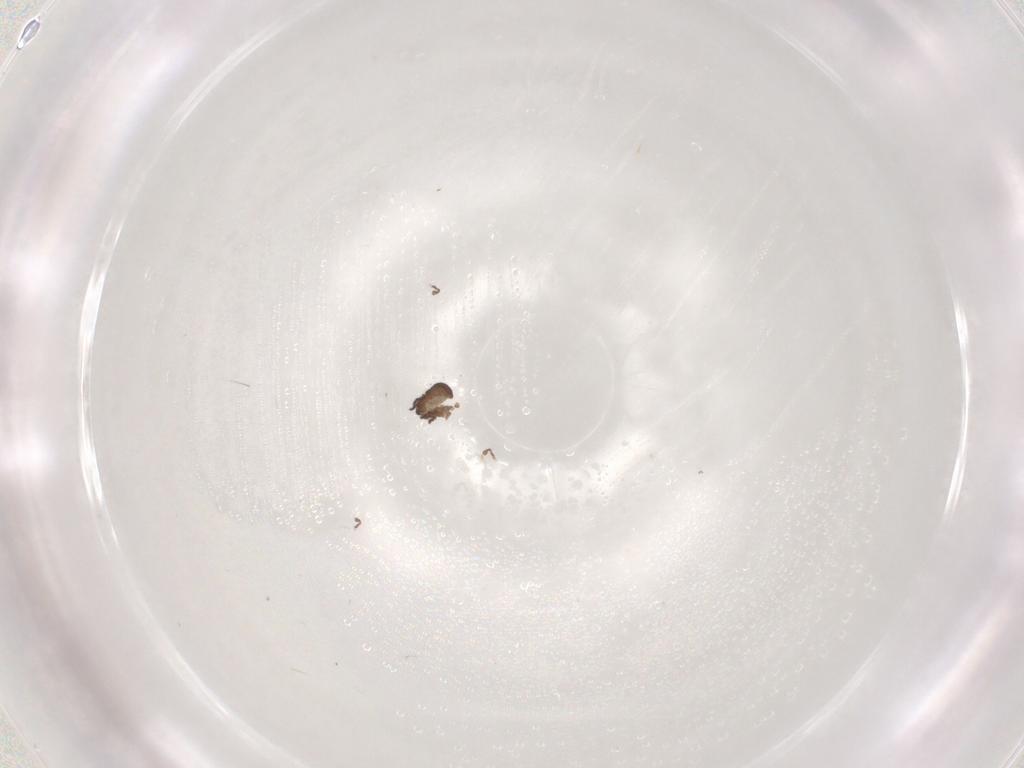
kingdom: Animalia
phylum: Arthropoda
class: Insecta
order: Blattodea
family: Blaberidae
